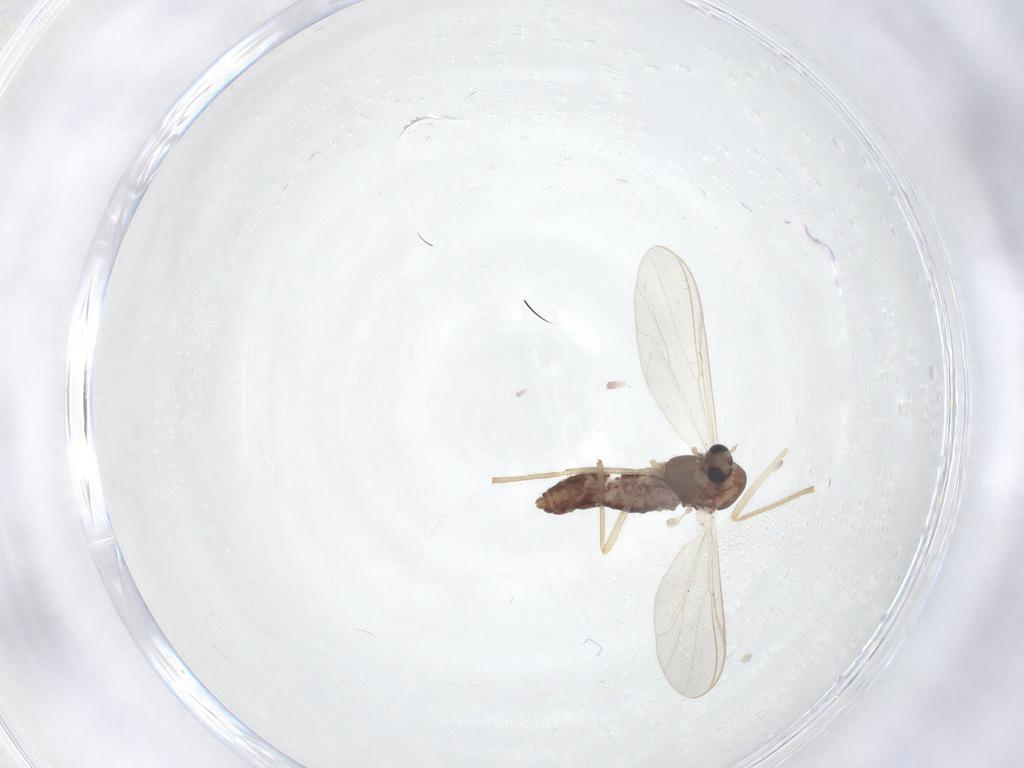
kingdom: Animalia
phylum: Arthropoda
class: Insecta
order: Diptera
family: Chironomidae
